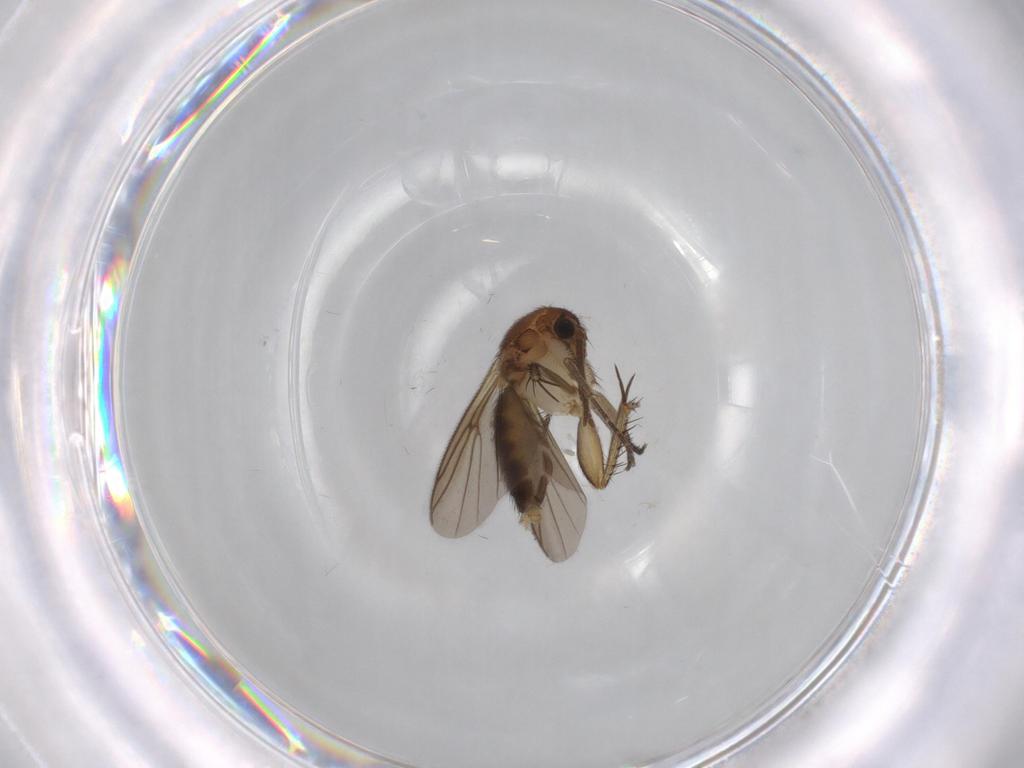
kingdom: Animalia
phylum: Arthropoda
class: Insecta
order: Diptera
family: Mycetophilidae
